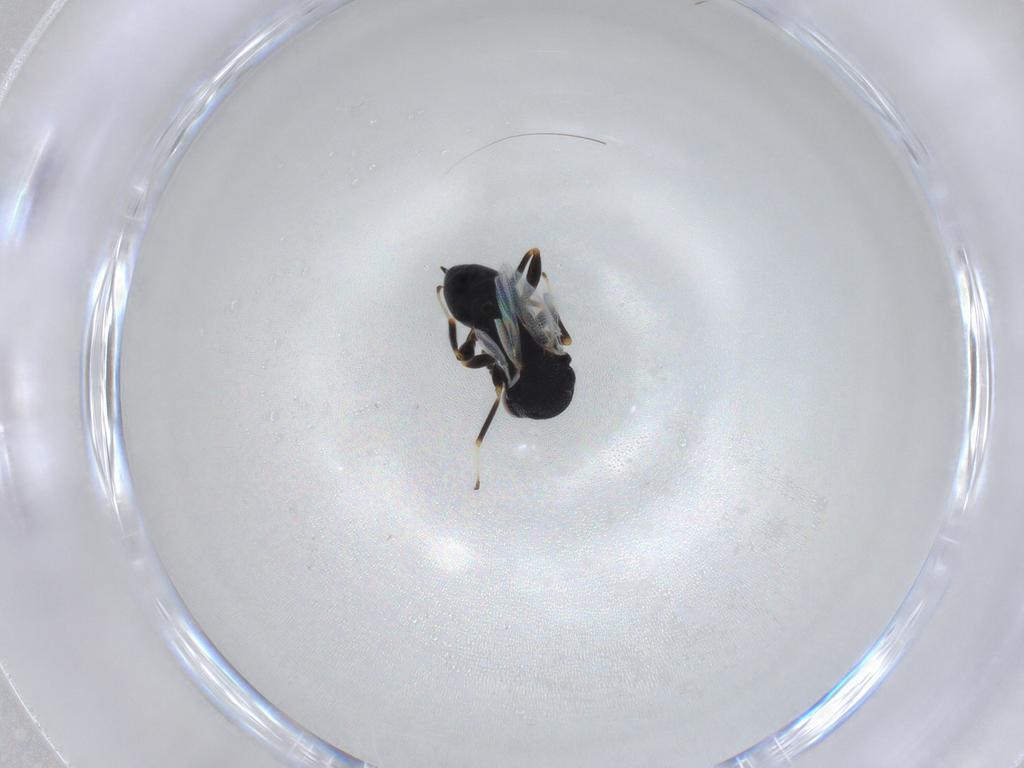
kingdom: Animalia
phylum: Arthropoda
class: Insecta
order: Hymenoptera
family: Eurytomidae
